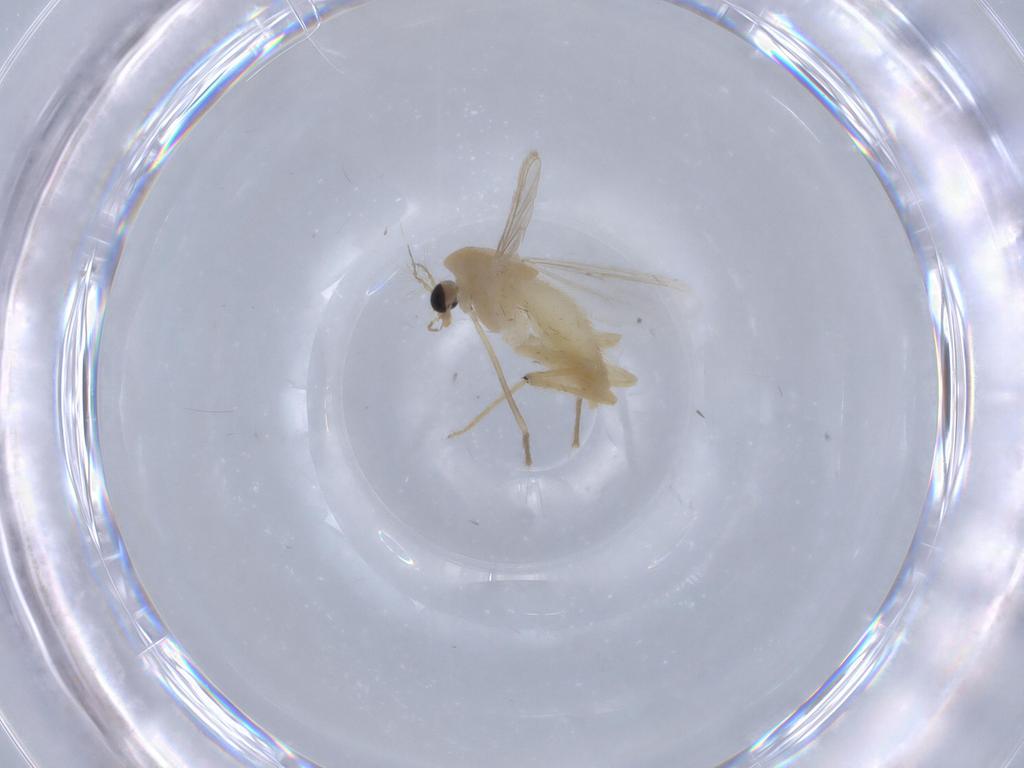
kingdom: Animalia
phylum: Arthropoda
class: Insecta
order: Diptera
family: Chironomidae
